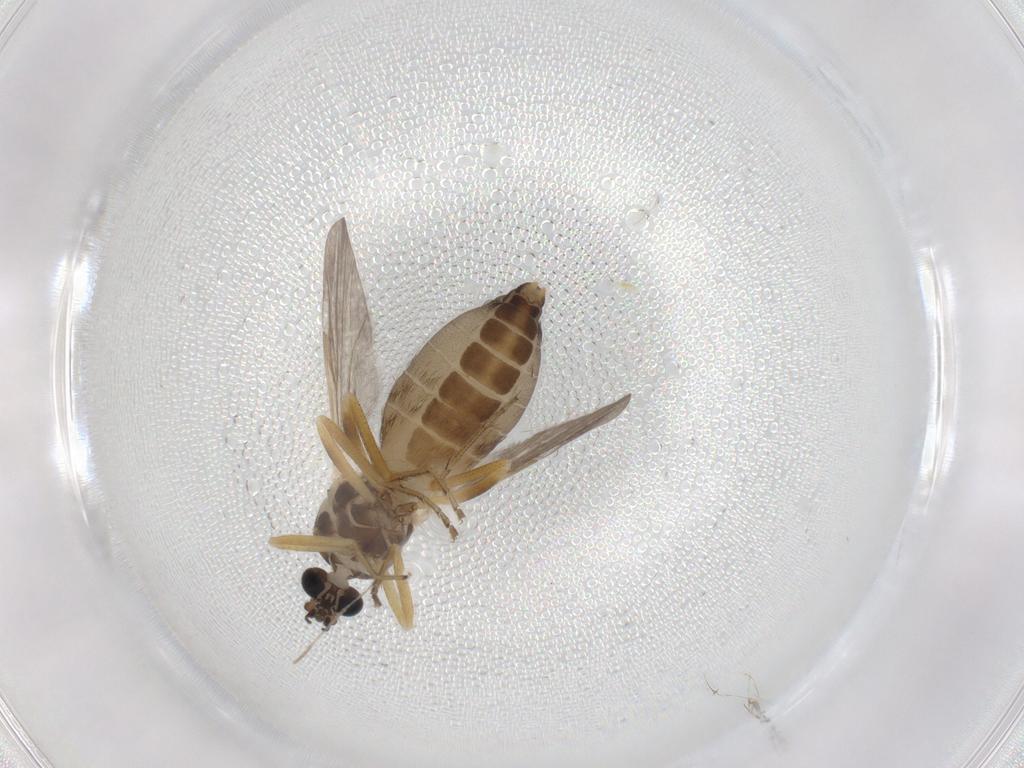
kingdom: Animalia
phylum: Arthropoda
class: Insecta
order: Diptera
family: Ceratopogonidae
